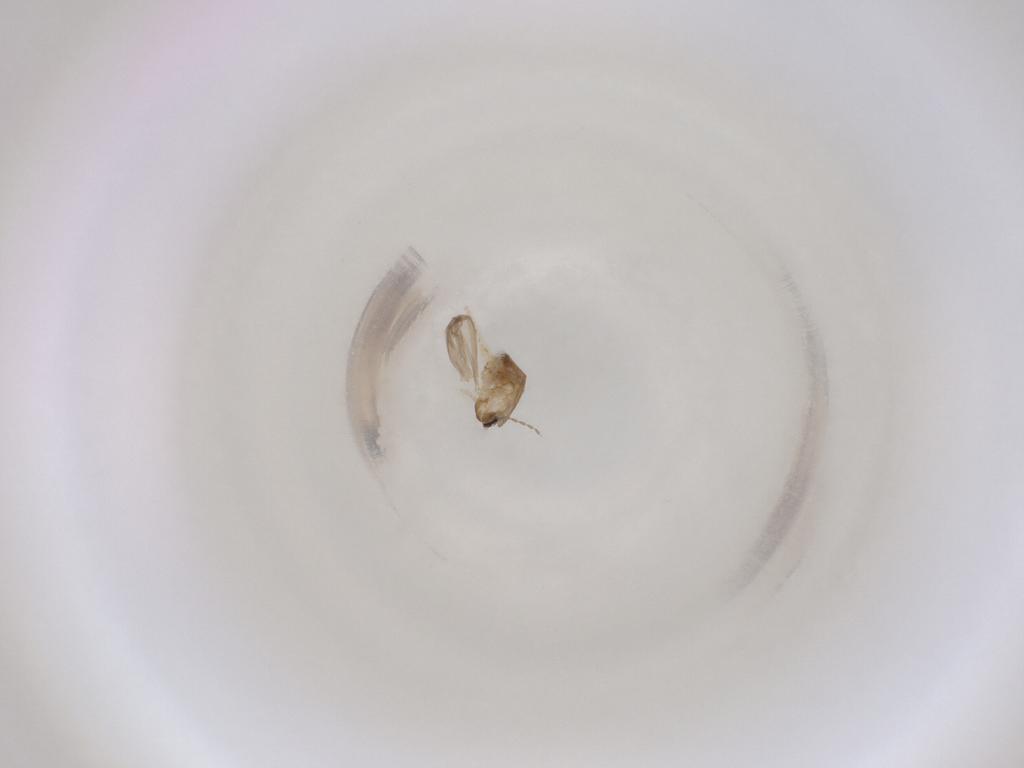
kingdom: Animalia
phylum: Arthropoda
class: Insecta
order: Diptera
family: Cecidomyiidae
